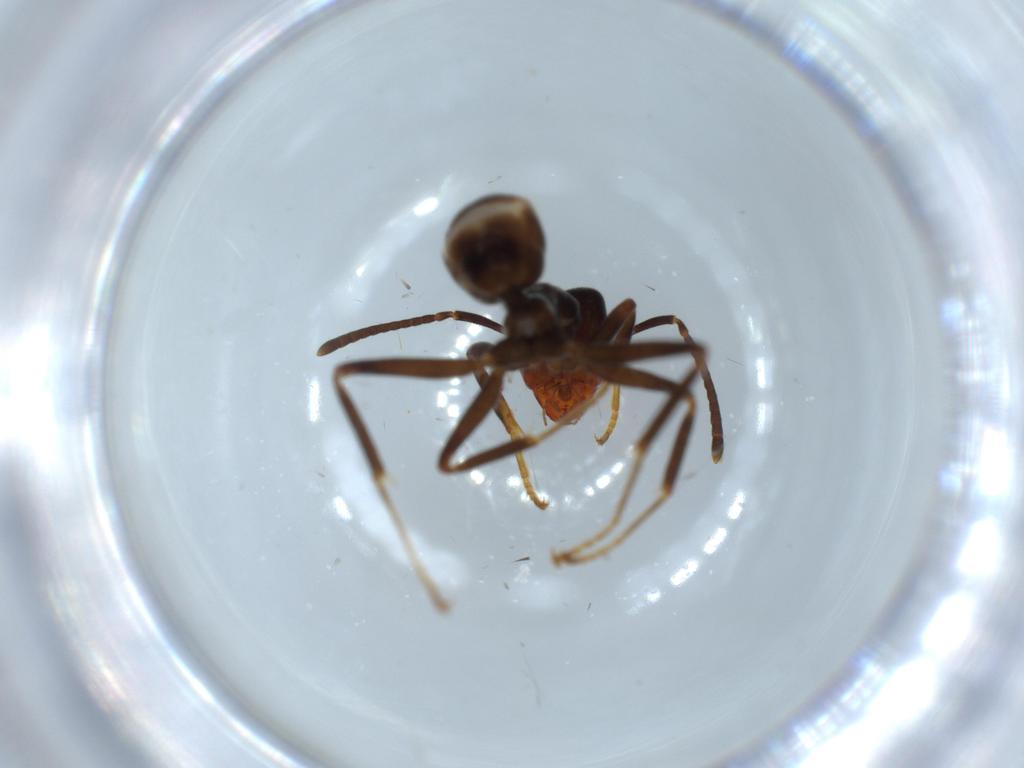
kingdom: Animalia
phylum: Arthropoda
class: Insecta
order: Hymenoptera
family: Formicidae
